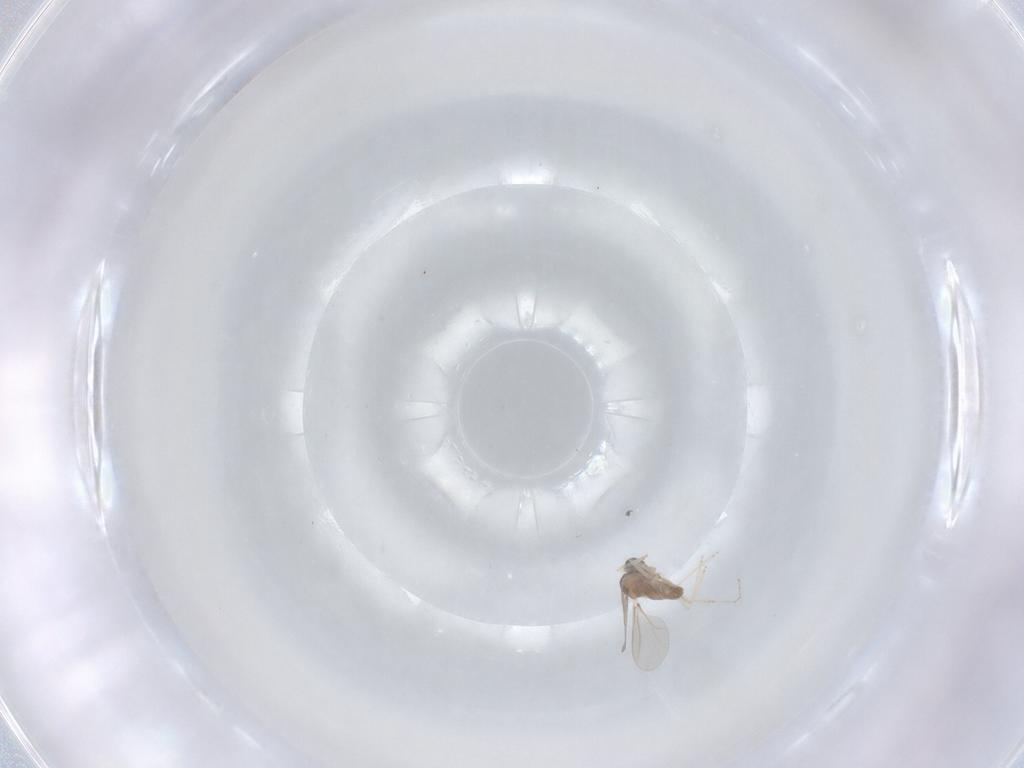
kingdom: Animalia
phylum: Arthropoda
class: Insecta
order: Diptera
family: Cecidomyiidae
